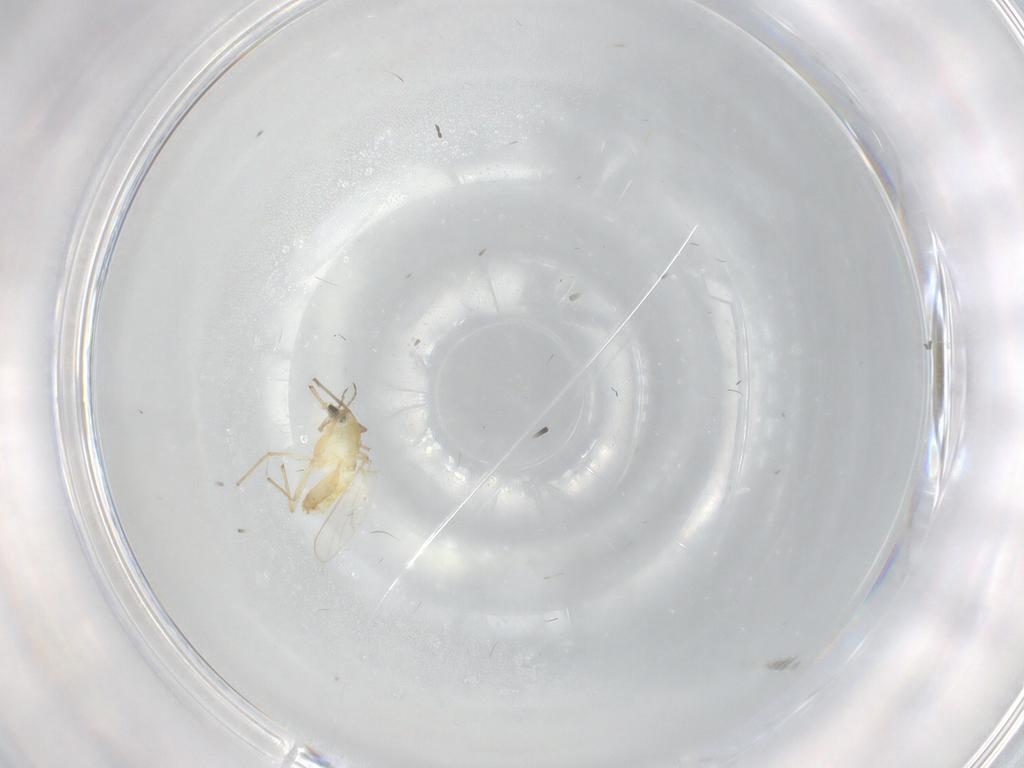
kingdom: Animalia
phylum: Arthropoda
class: Insecta
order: Diptera
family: Chironomidae
